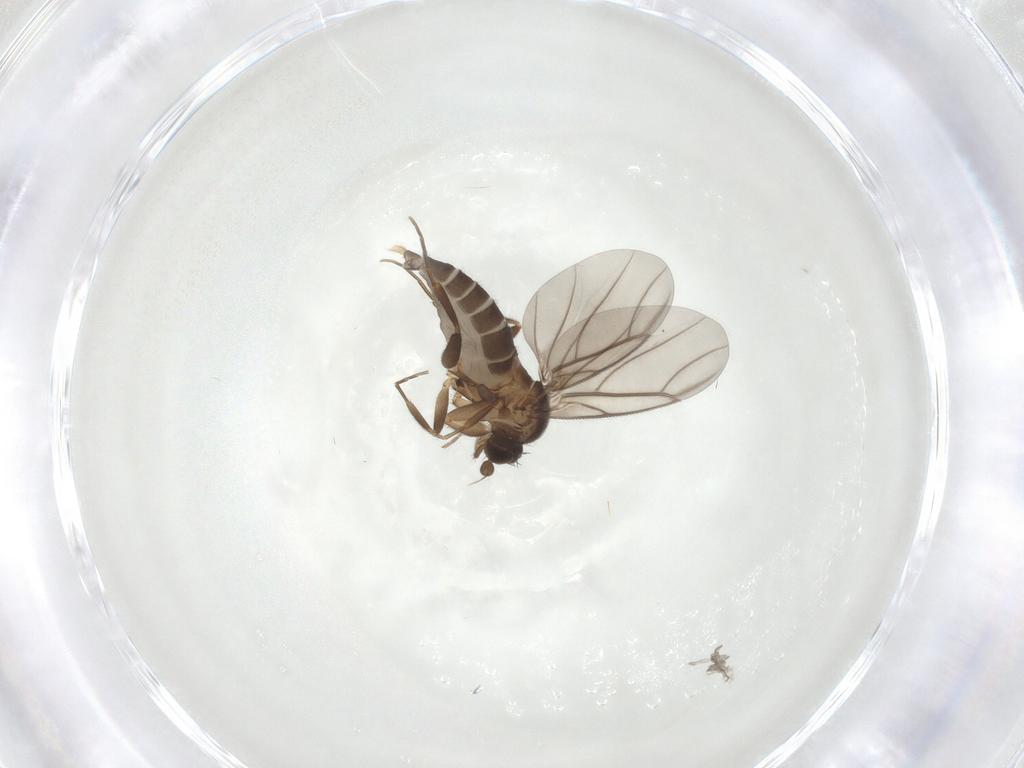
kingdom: Animalia
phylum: Arthropoda
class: Insecta
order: Diptera
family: Phoridae
